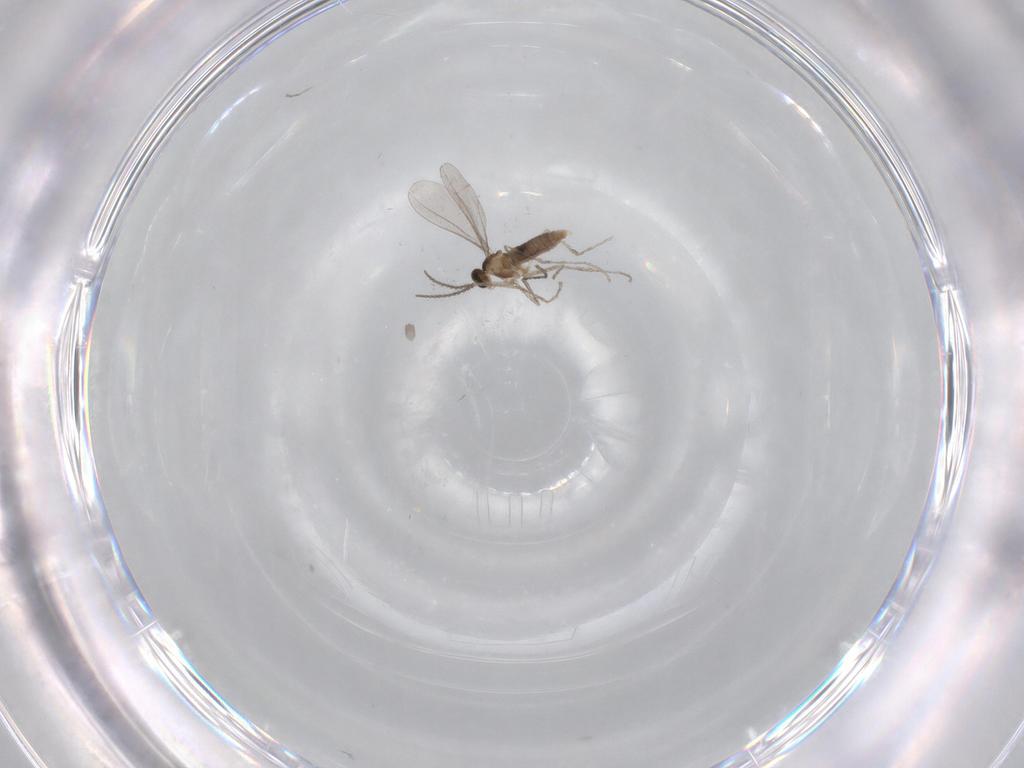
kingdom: Animalia
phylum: Arthropoda
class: Insecta
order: Diptera
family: Ceratopogonidae
